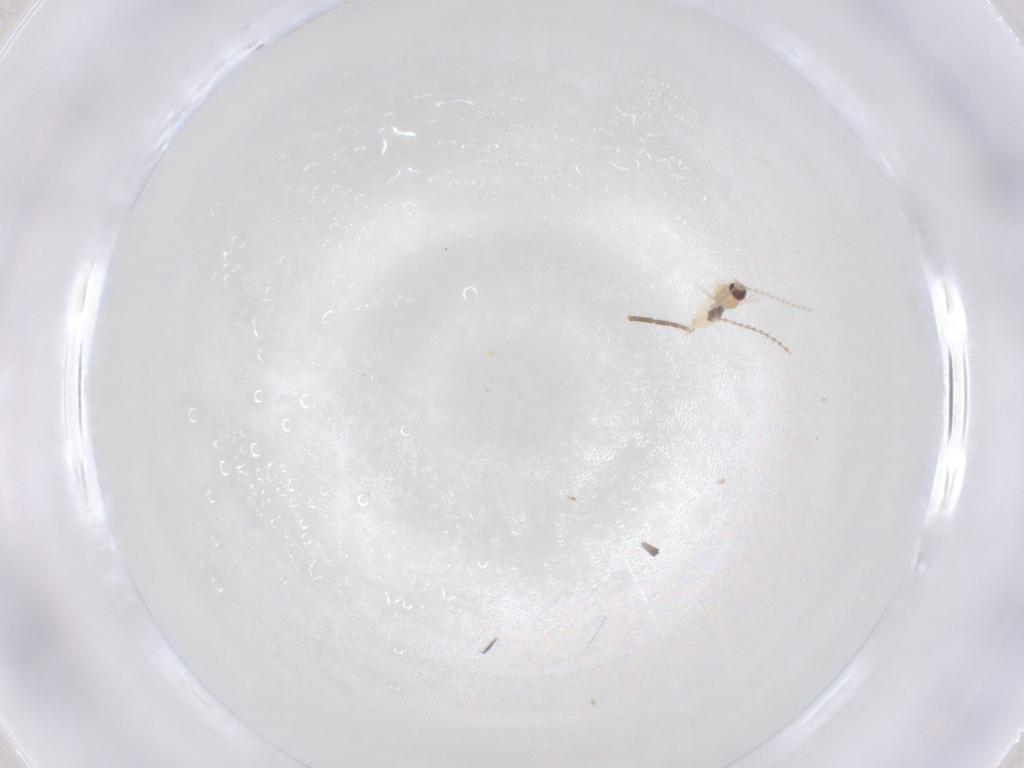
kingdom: Animalia
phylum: Arthropoda
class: Insecta
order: Diptera
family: Cecidomyiidae
